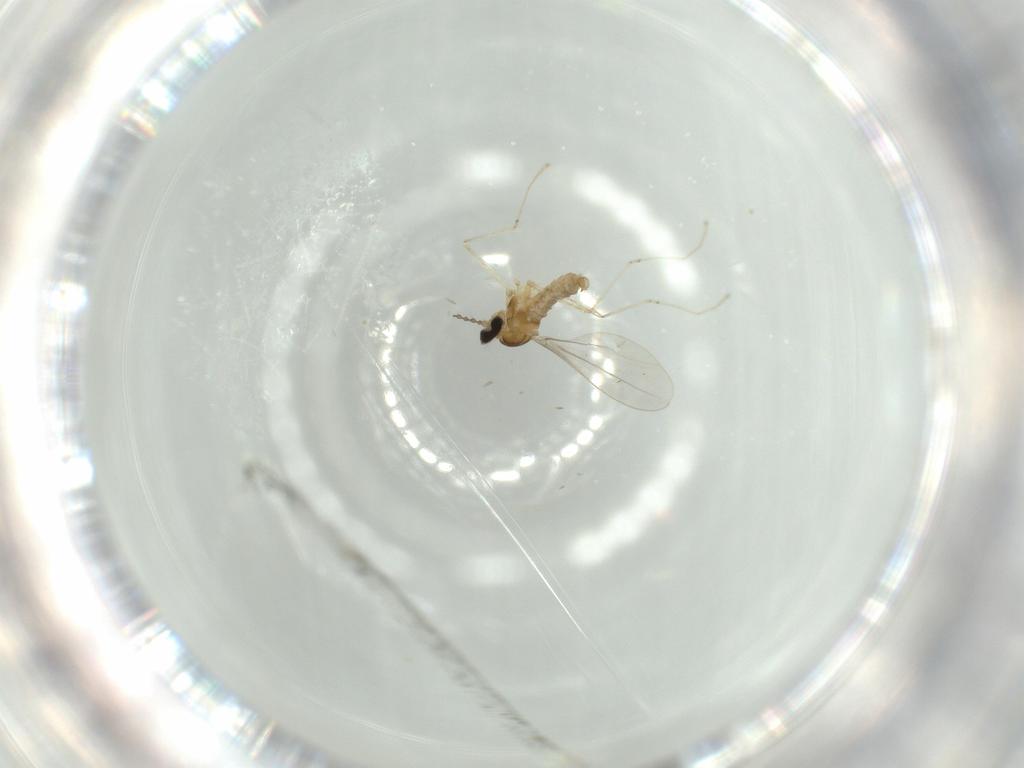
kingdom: Animalia
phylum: Arthropoda
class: Insecta
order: Diptera
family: Cecidomyiidae
